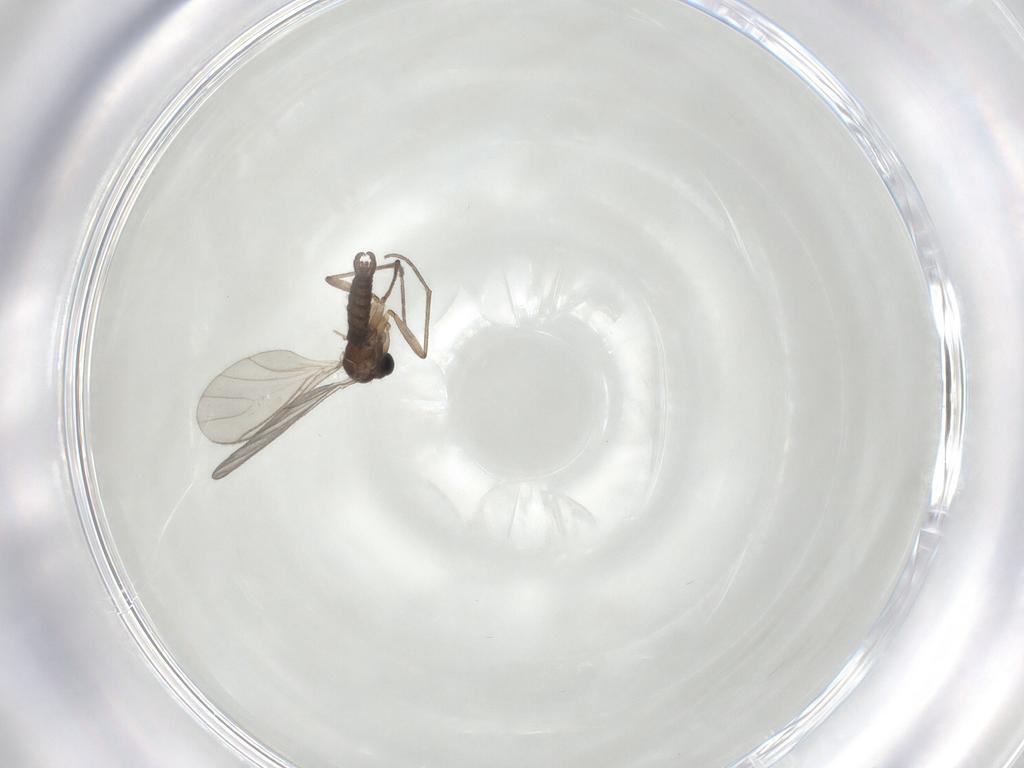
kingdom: Animalia
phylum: Arthropoda
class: Insecta
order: Diptera
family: Sciaridae
